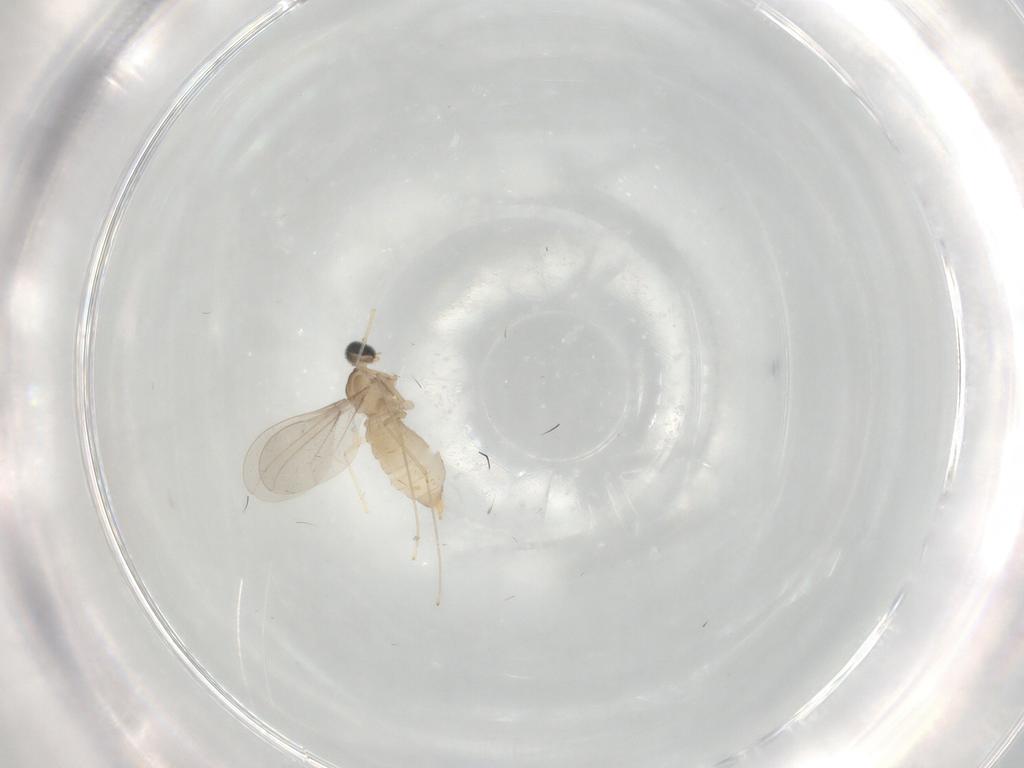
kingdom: Animalia
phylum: Arthropoda
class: Insecta
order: Diptera
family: Cecidomyiidae
